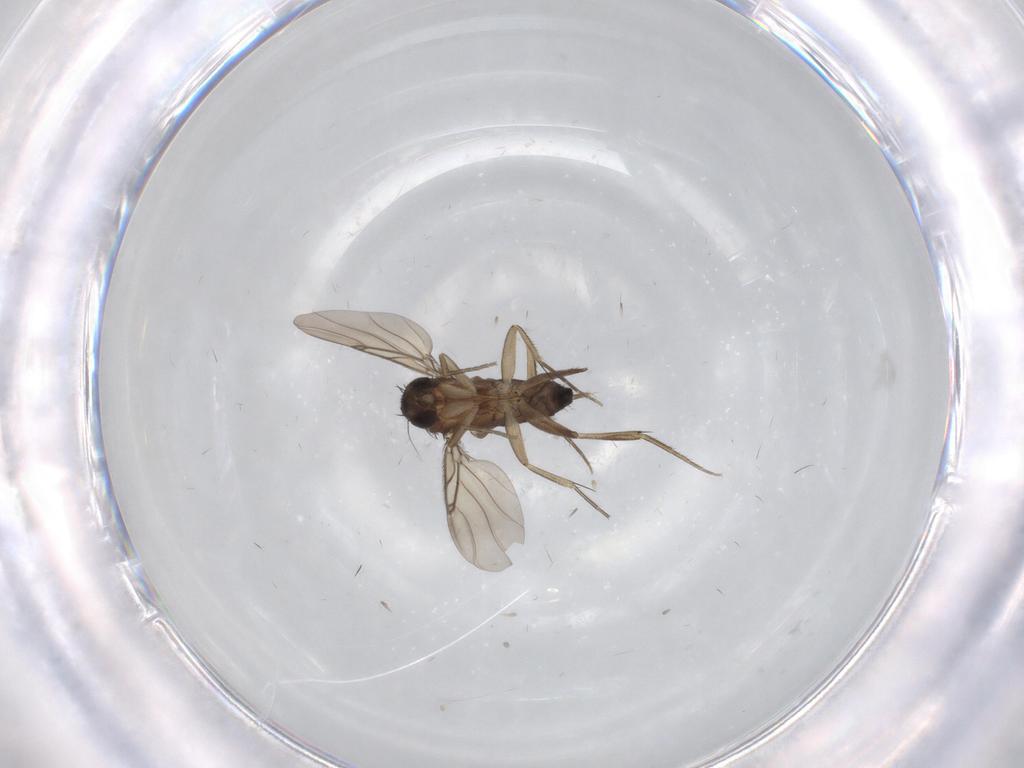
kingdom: Animalia
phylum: Arthropoda
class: Insecta
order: Diptera
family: Phoridae
